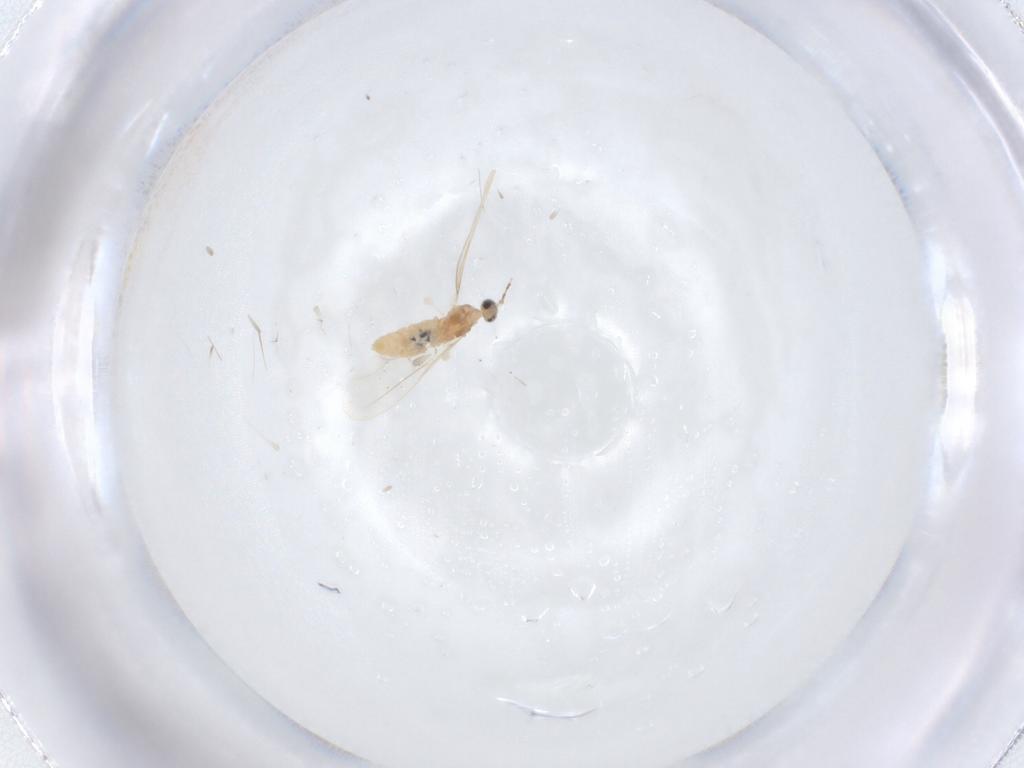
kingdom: Animalia
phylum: Arthropoda
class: Insecta
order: Diptera
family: Cecidomyiidae
